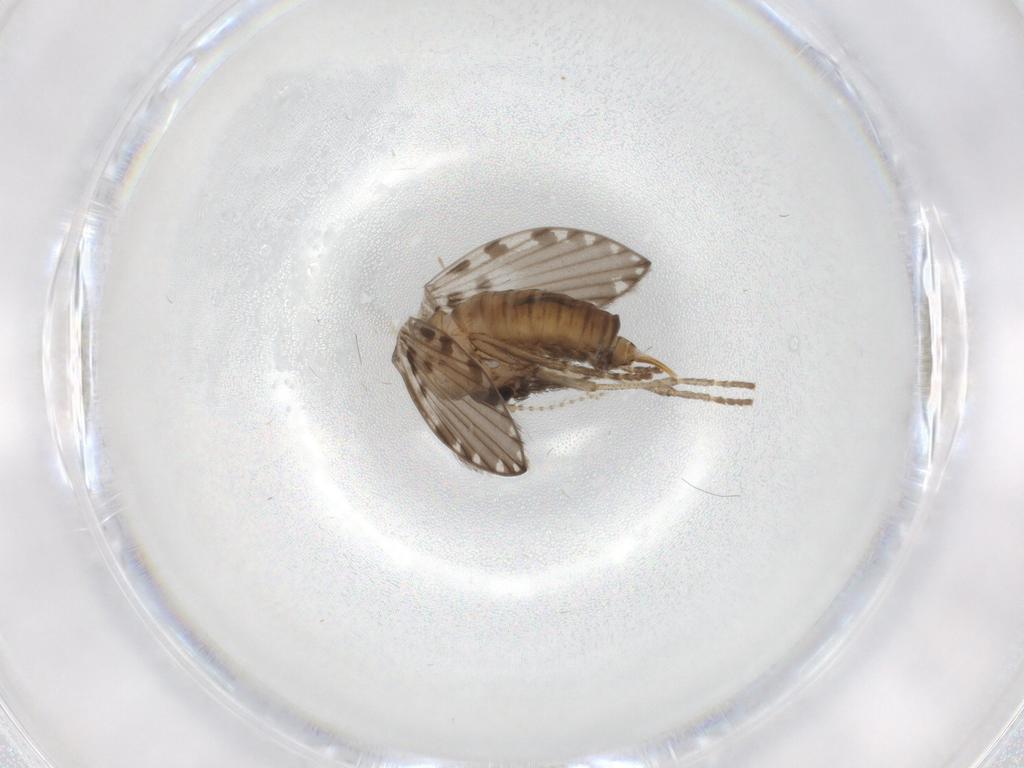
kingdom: Animalia
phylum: Arthropoda
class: Insecta
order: Diptera
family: Psychodidae
